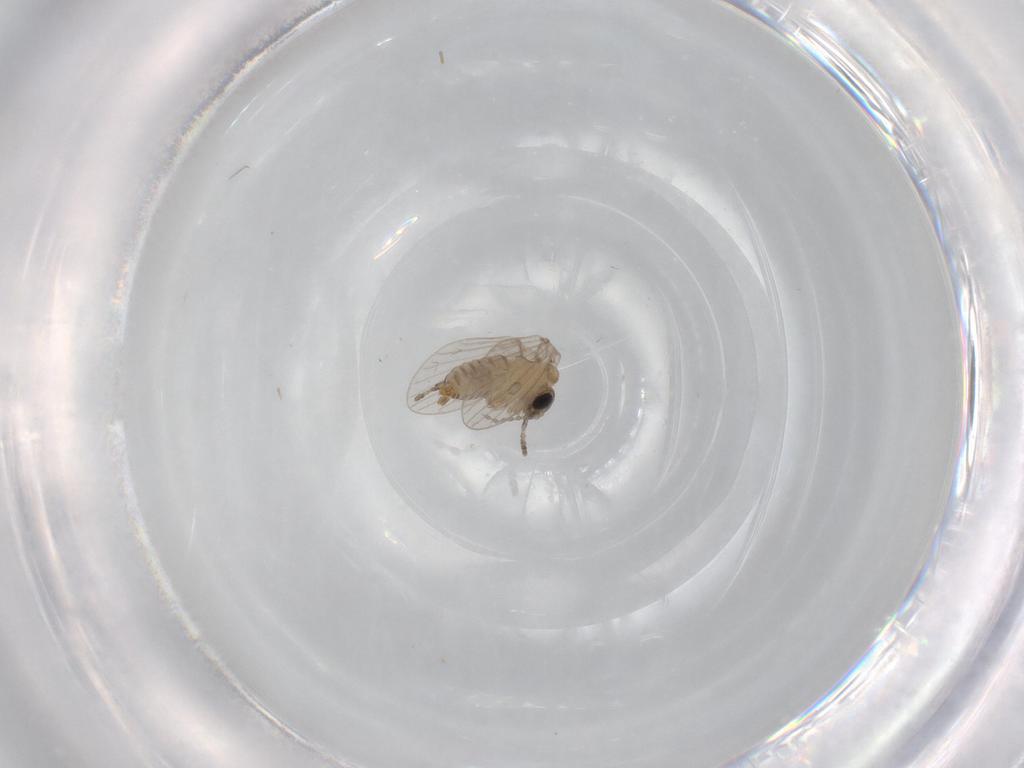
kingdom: Animalia
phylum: Arthropoda
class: Insecta
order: Diptera
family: Psychodidae
